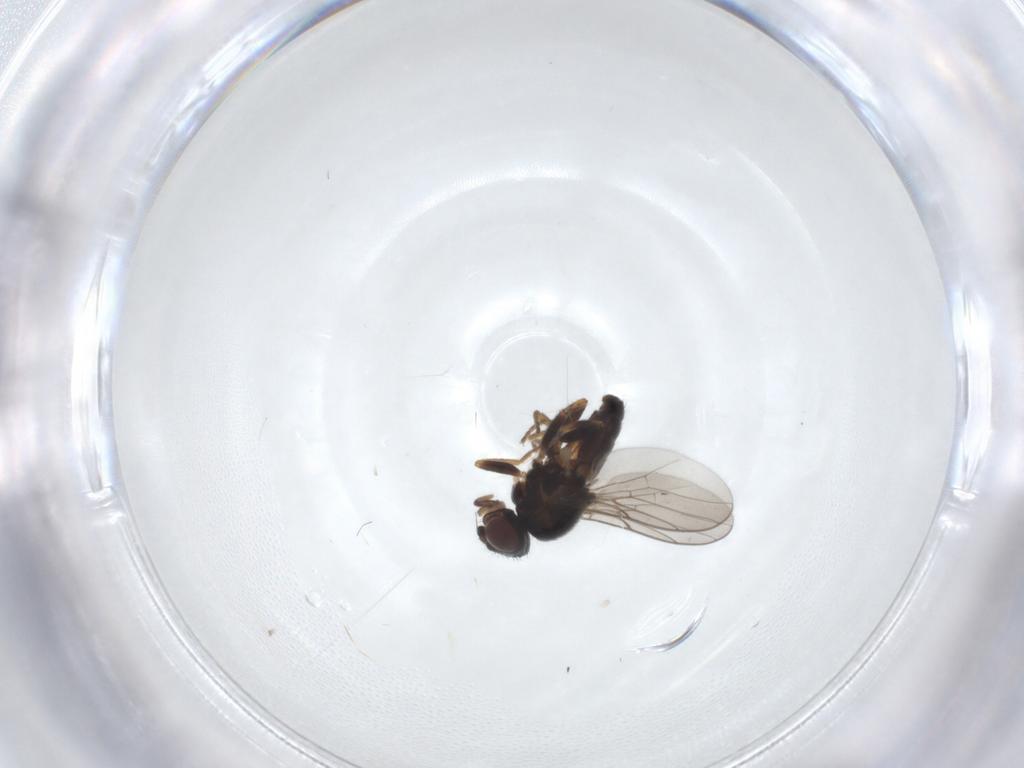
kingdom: Animalia
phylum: Arthropoda
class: Insecta
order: Diptera
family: Chloropidae
